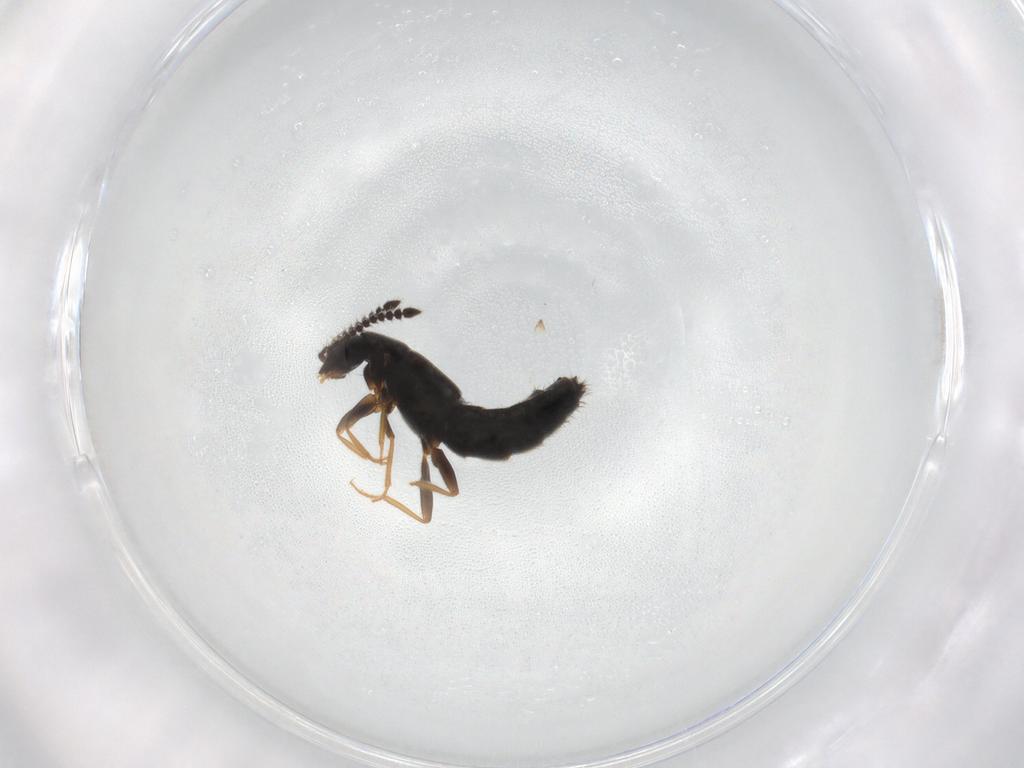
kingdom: Animalia
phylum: Arthropoda
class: Insecta
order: Coleoptera
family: Staphylinidae
